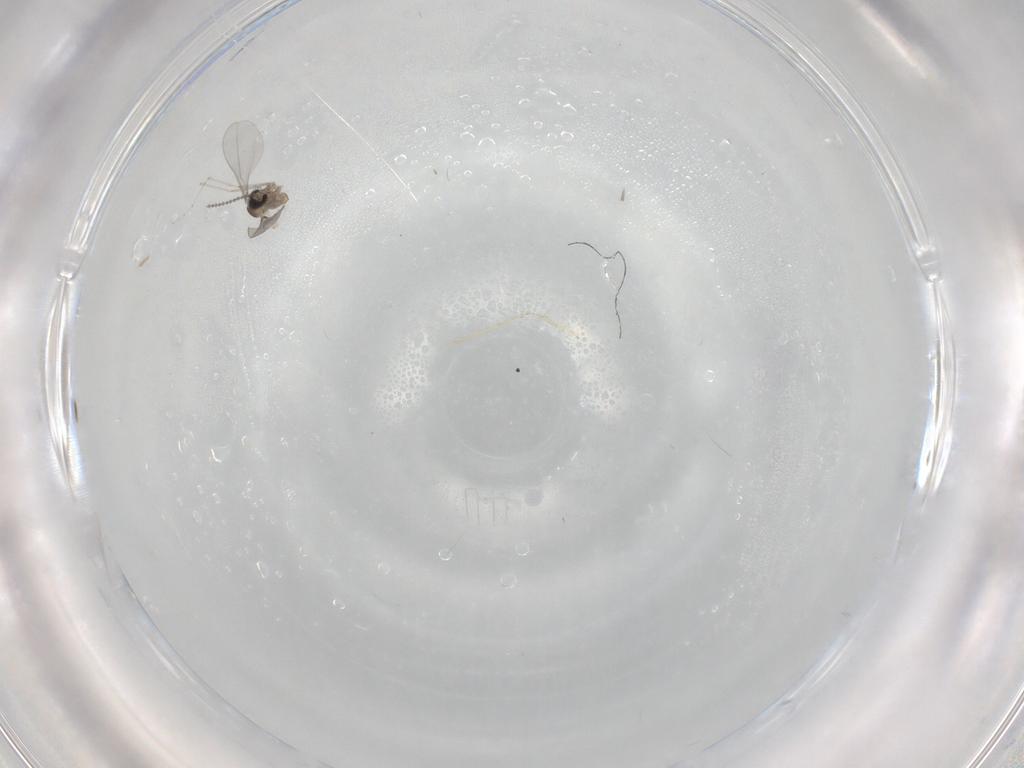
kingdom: Animalia
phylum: Arthropoda
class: Insecta
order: Diptera
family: Cecidomyiidae
